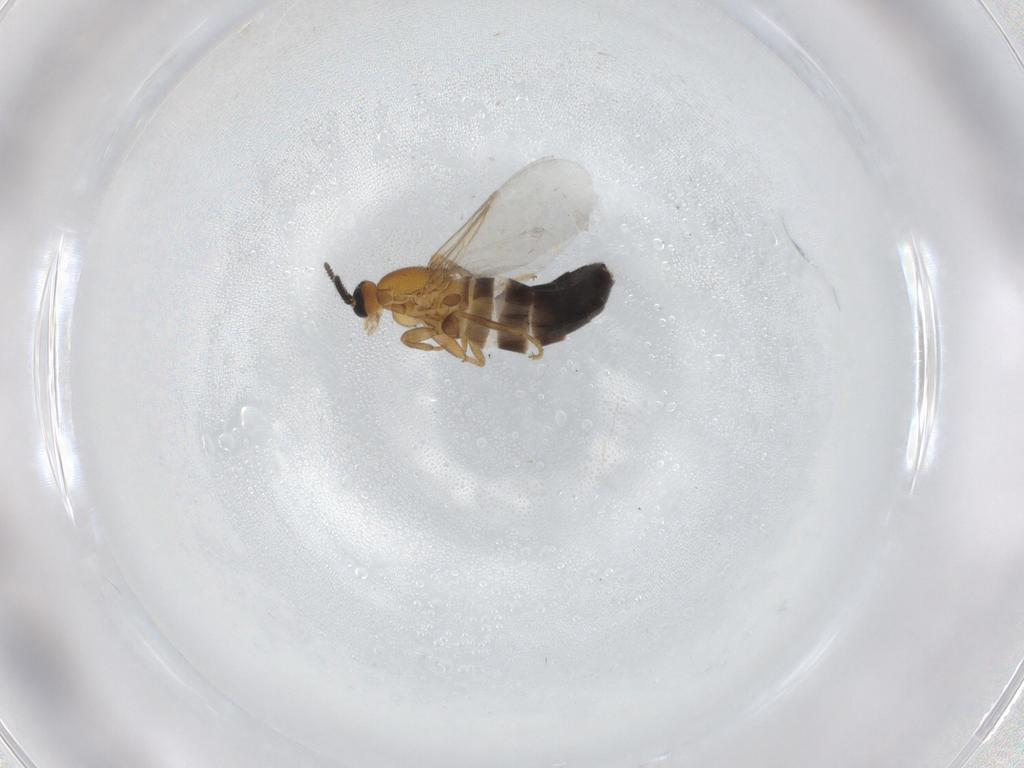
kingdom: Animalia
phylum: Arthropoda
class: Insecta
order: Diptera
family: Scatopsidae
